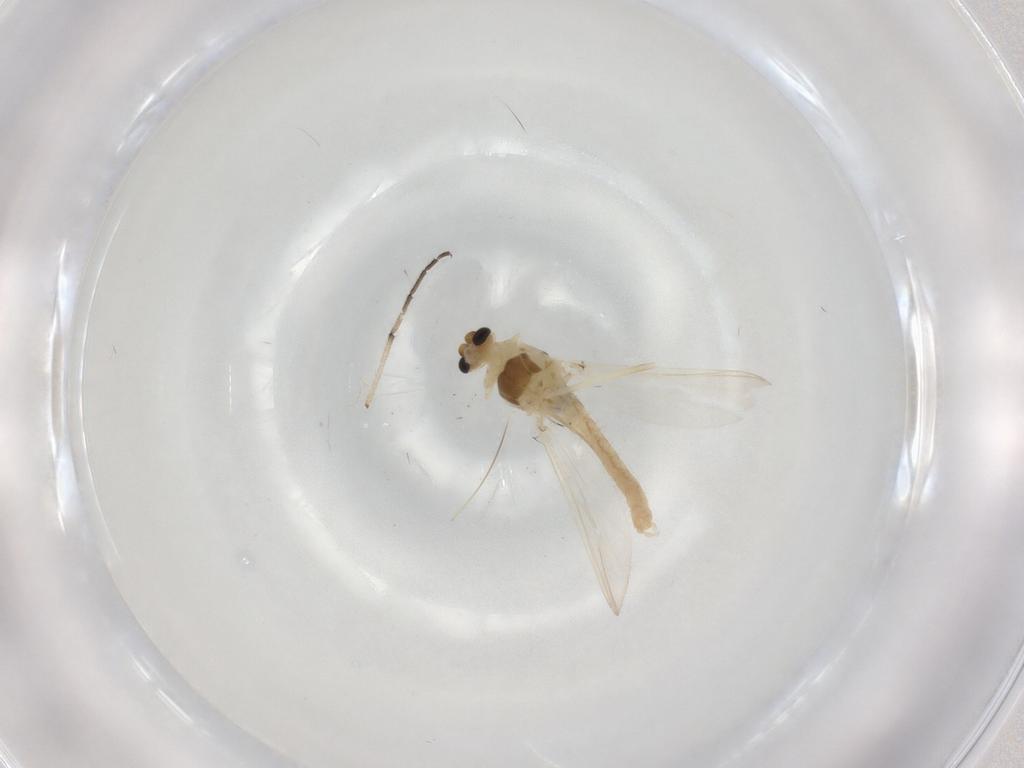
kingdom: Animalia
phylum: Arthropoda
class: Insecta
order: Diptera
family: Chironomidae
